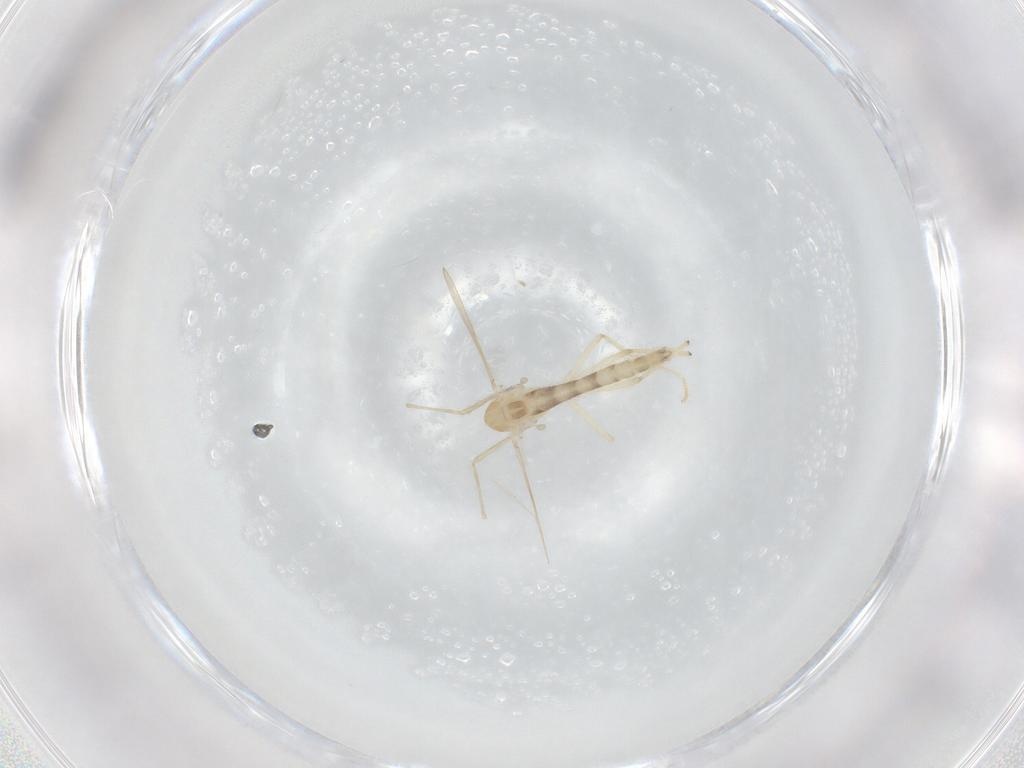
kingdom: Animalia
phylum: Arthropoda
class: Insecta
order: Diptera
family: Chironomidae
